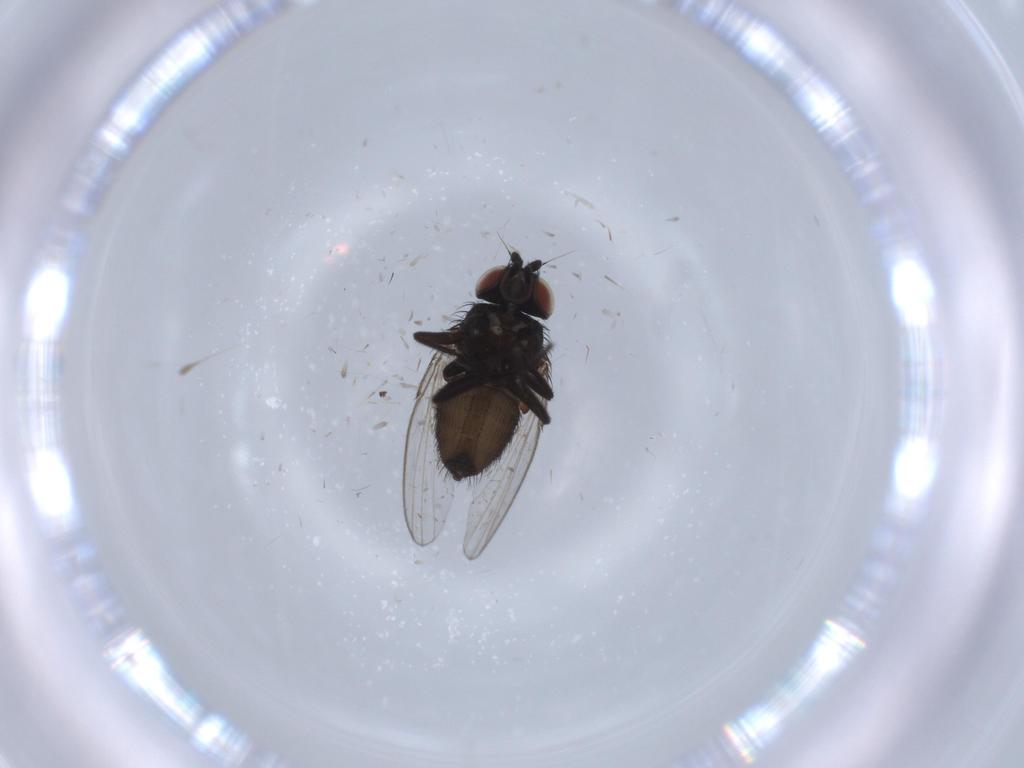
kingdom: Animalia
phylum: Arthropoda
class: Insecta
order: Diptera
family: Milichiidae
